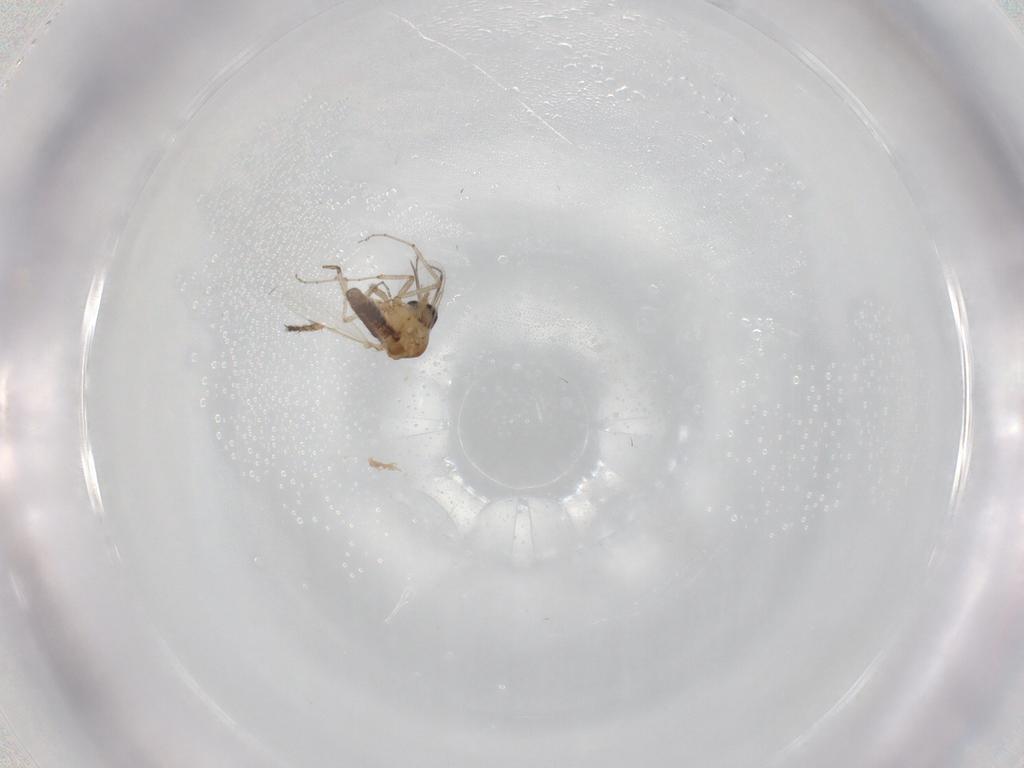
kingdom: Animalia
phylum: Arthropoda
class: Insecta
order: Diptera
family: Ceratopogonidae
